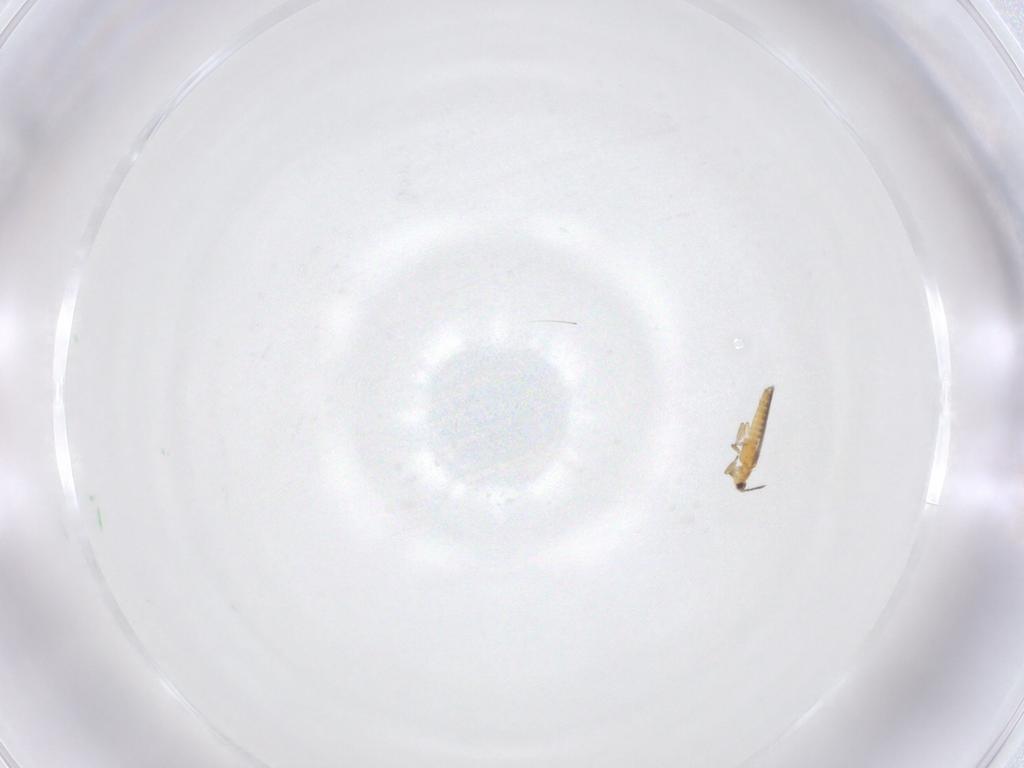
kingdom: Animalia
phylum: Arthropoda
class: Insecta
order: Thysanoptera
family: Thripidae
